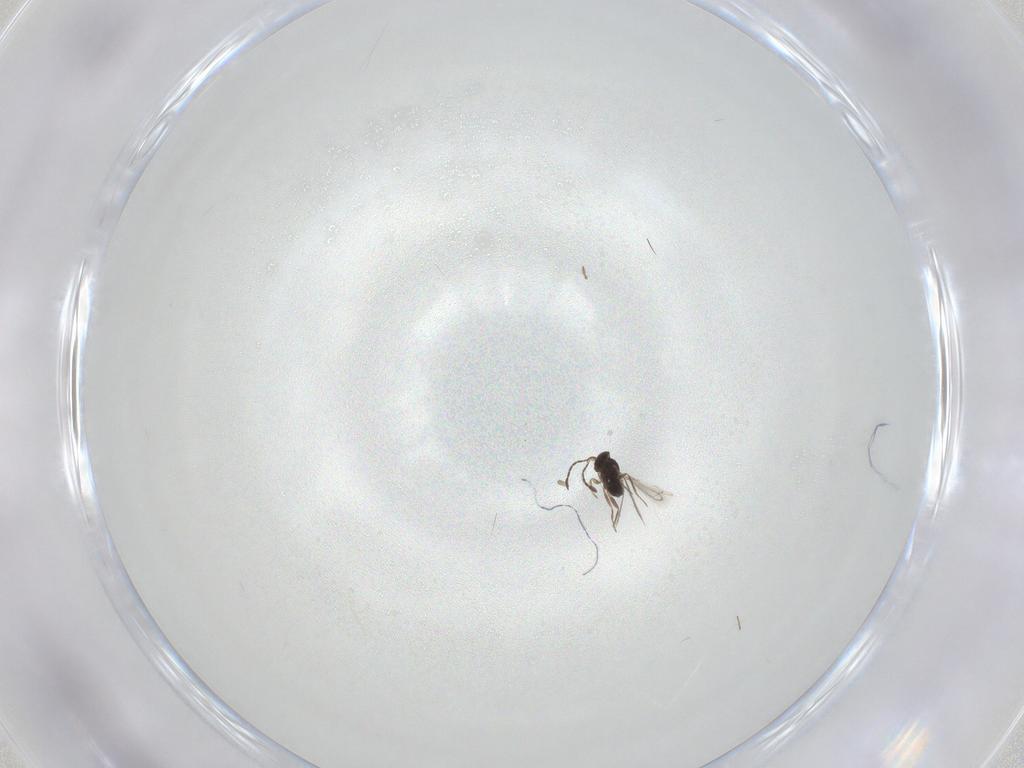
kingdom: Animalia
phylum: Arthropoda
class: Insecta
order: Hymenoptera
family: Mymaridae
